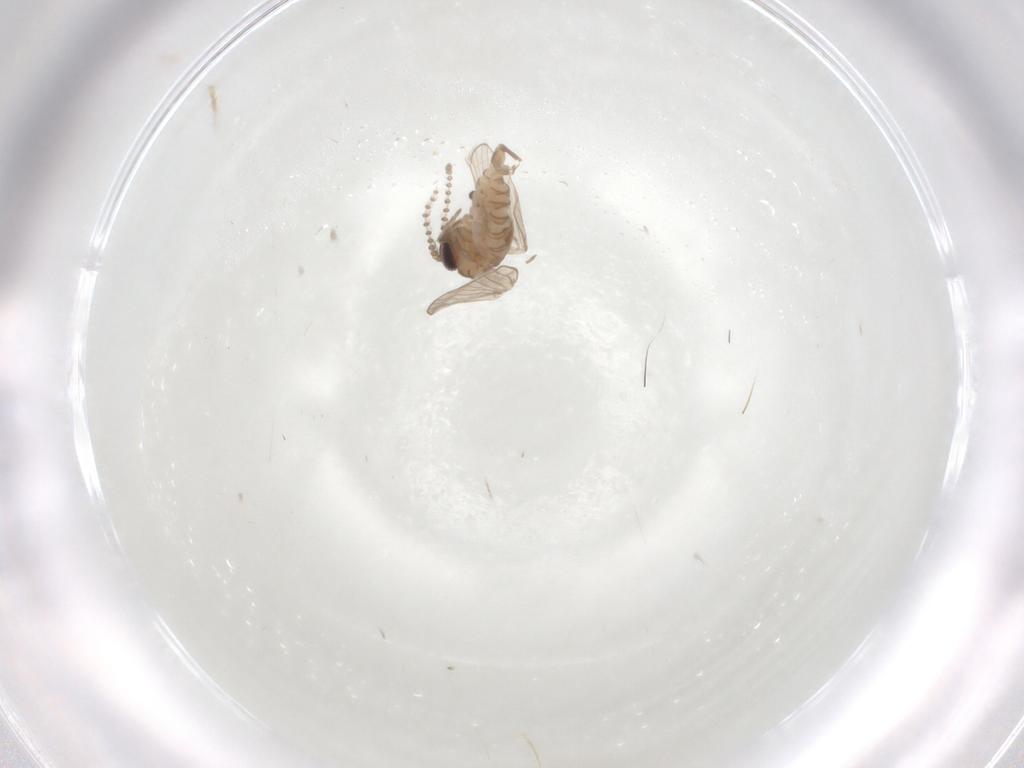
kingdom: Animalia
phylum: Arthropoda
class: Insecta
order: Diptera
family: Psychodidae
